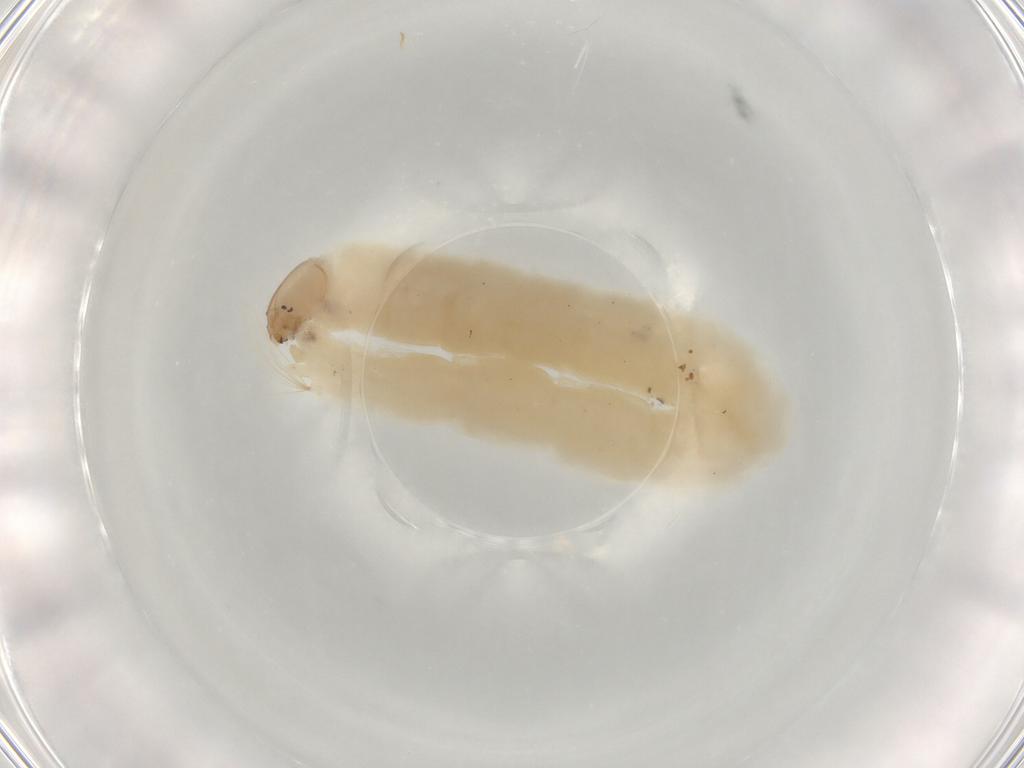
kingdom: Animalia
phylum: Arthropoda
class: Insecta
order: Diptera
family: Chironomidae
